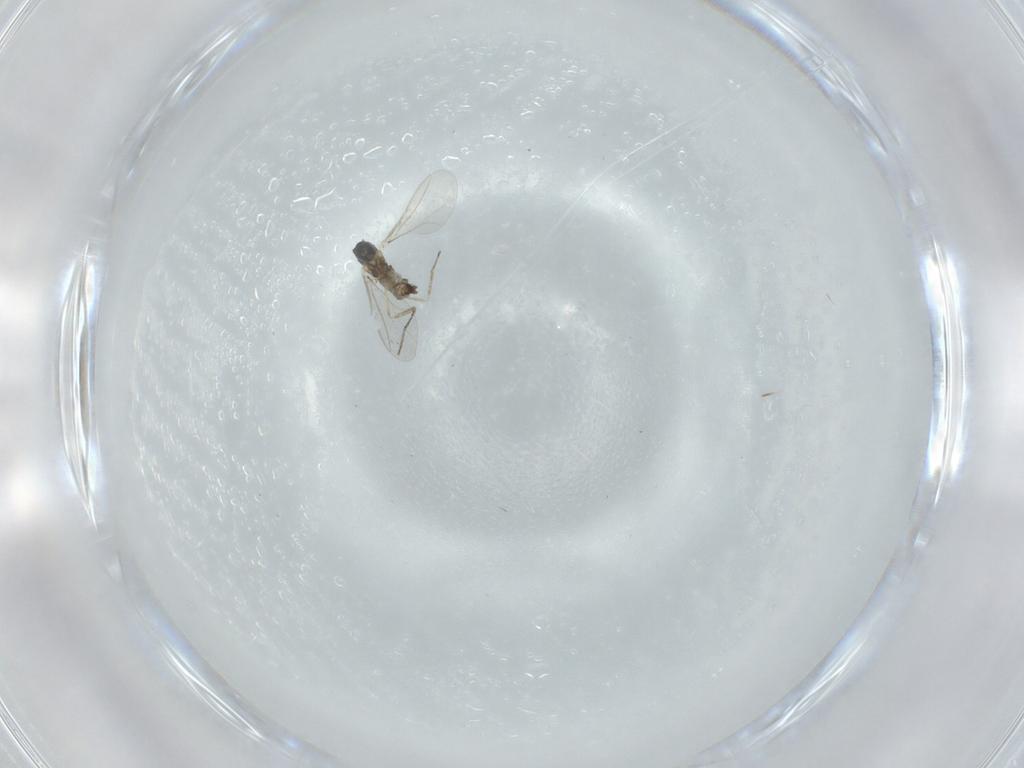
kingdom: Animalia
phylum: Arthropoda
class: Insecta
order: Diptera
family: Cecidomyiidae
